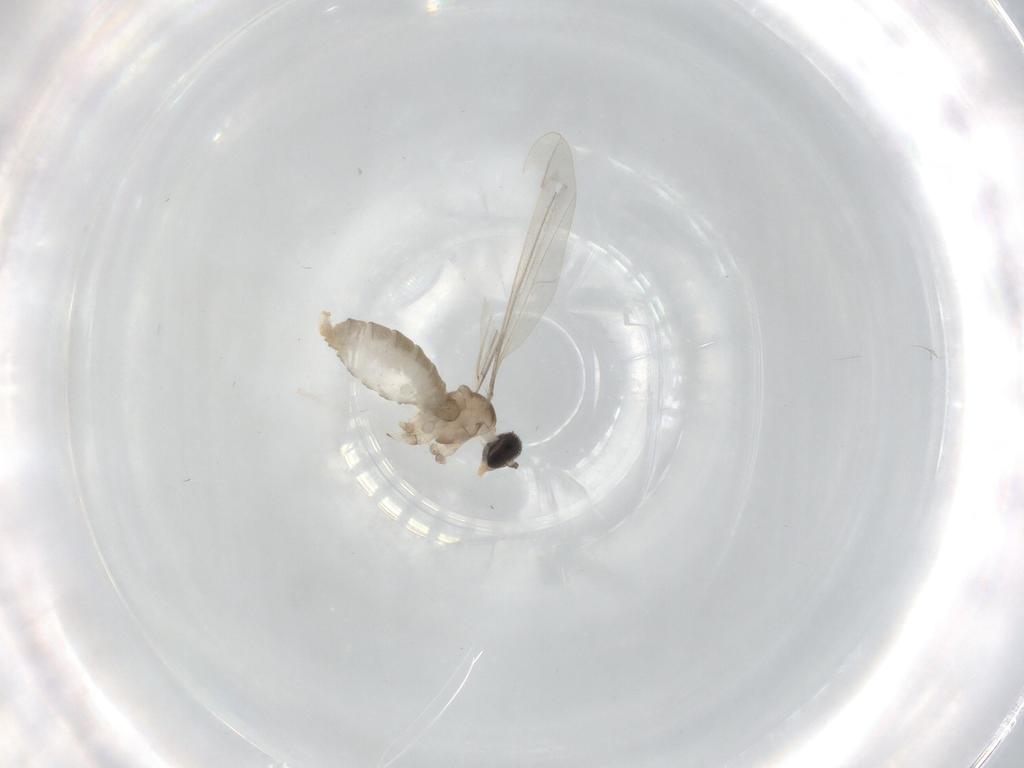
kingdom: Animalia
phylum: Arthropoda
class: Insecta
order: Diptera
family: Cecidomyiidae
